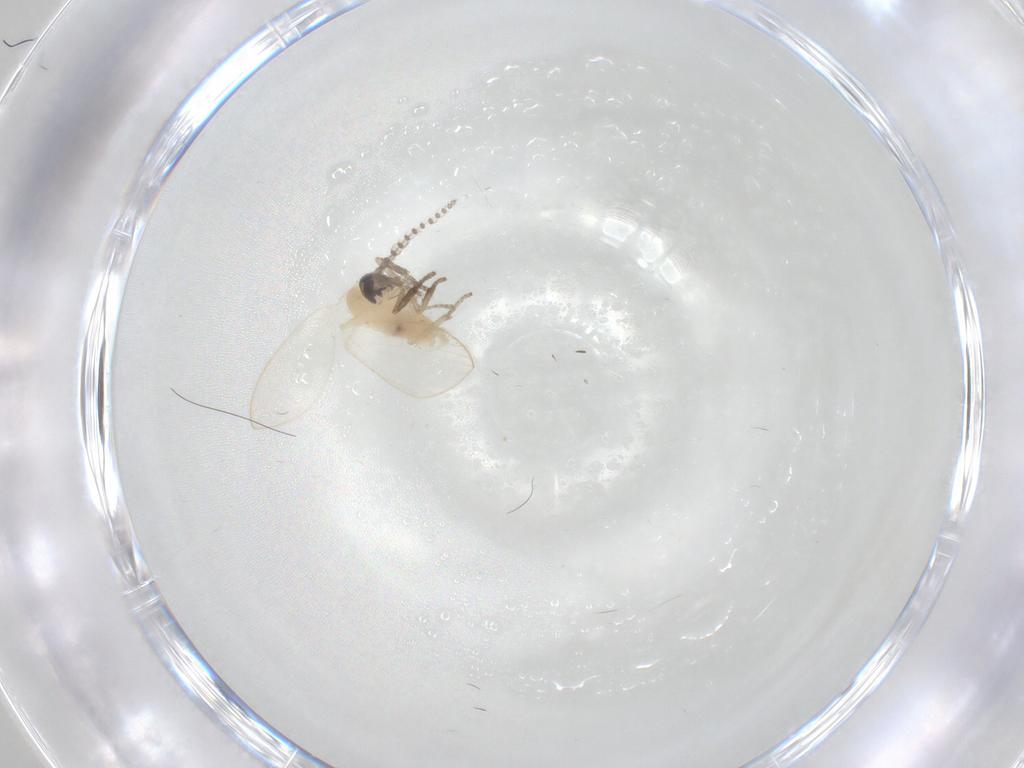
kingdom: Animalia
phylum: Arthropoda
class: Insecta
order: Diptera
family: Psychodidae
